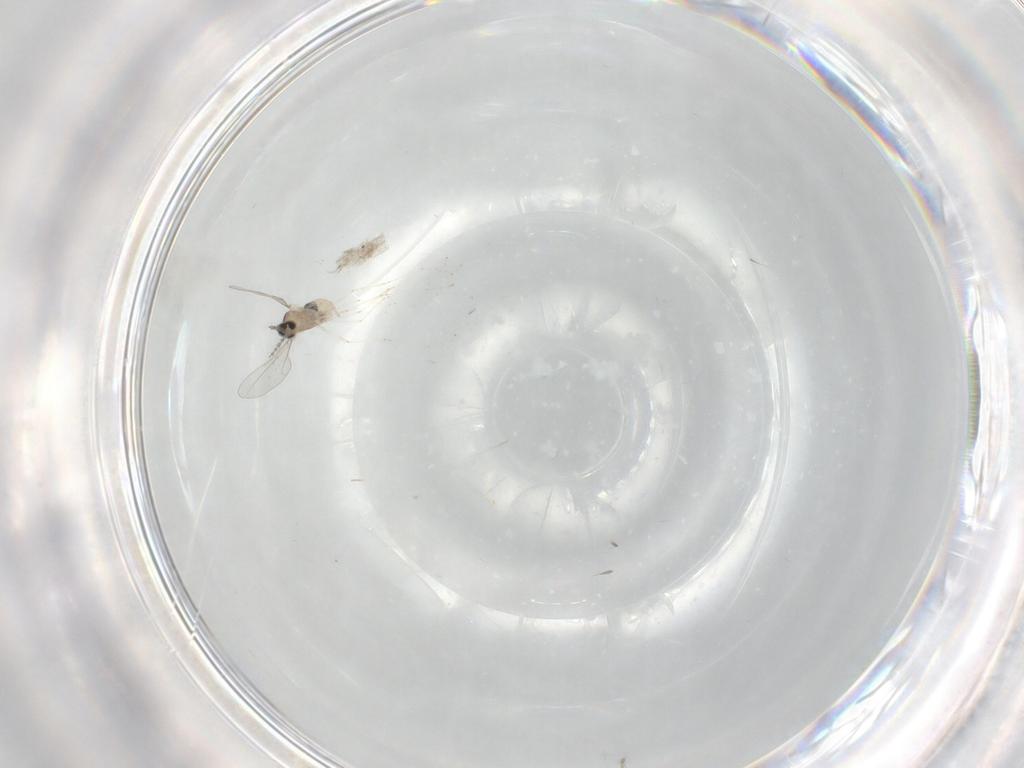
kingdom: Animalia
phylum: Arthropoda
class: Insecta
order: Diptera
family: Cecidomyiidae
